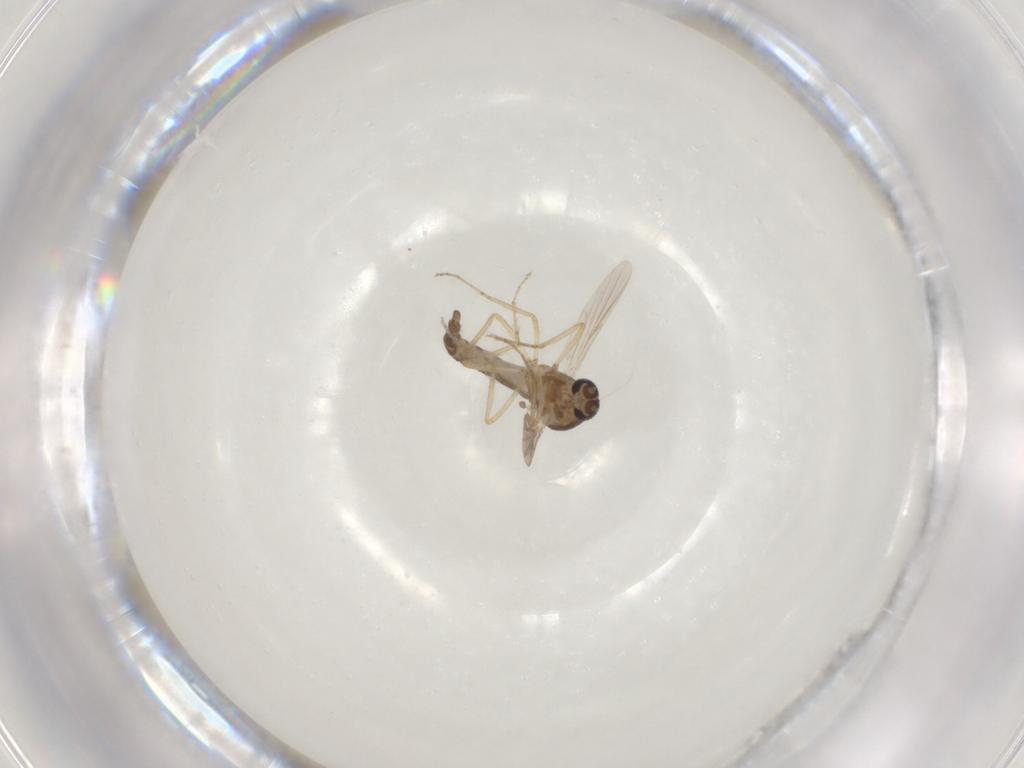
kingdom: Animalia
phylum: Arthropoda
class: Insecta
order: Diptera
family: Ceratopogonidae
